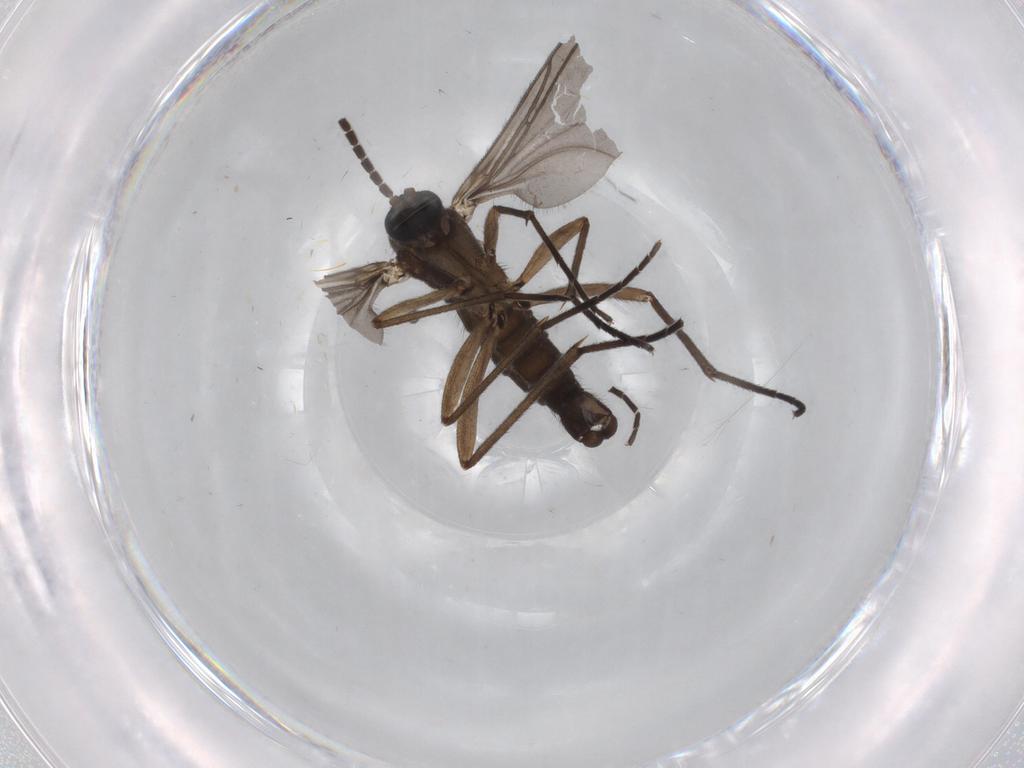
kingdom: Animalia
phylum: Arthropoda
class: Insecta
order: Diptera
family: Sciaridae
